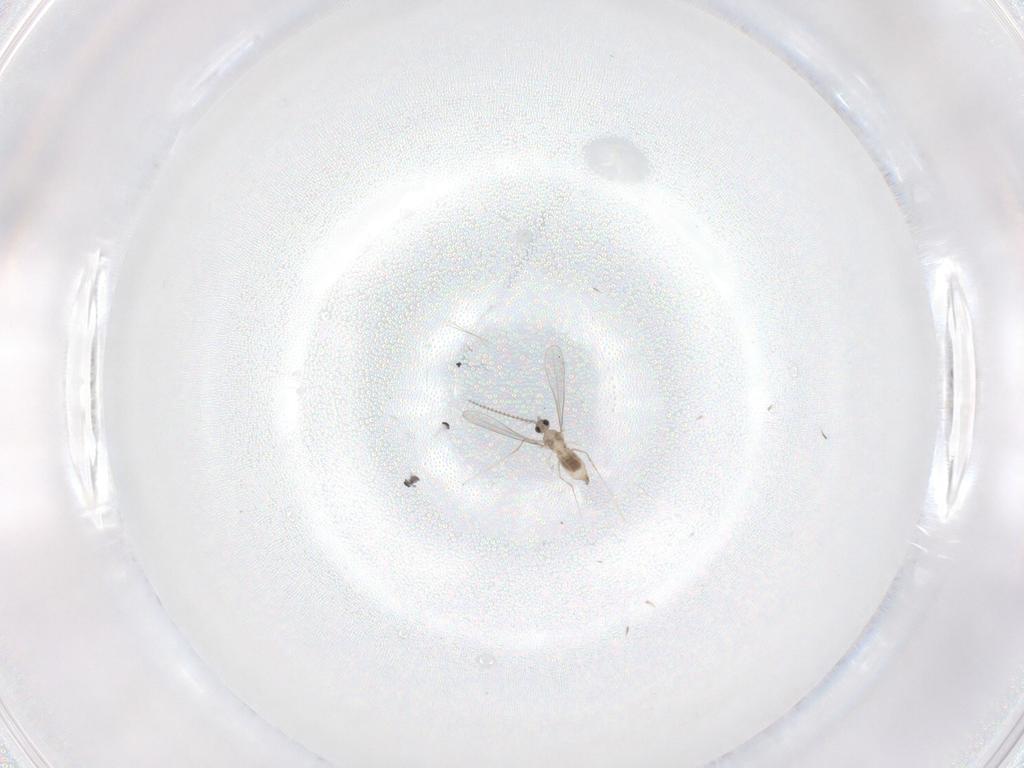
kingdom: Animalia
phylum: Arthropoda
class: Insecta
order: Diptera
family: Cecidomyiidae
